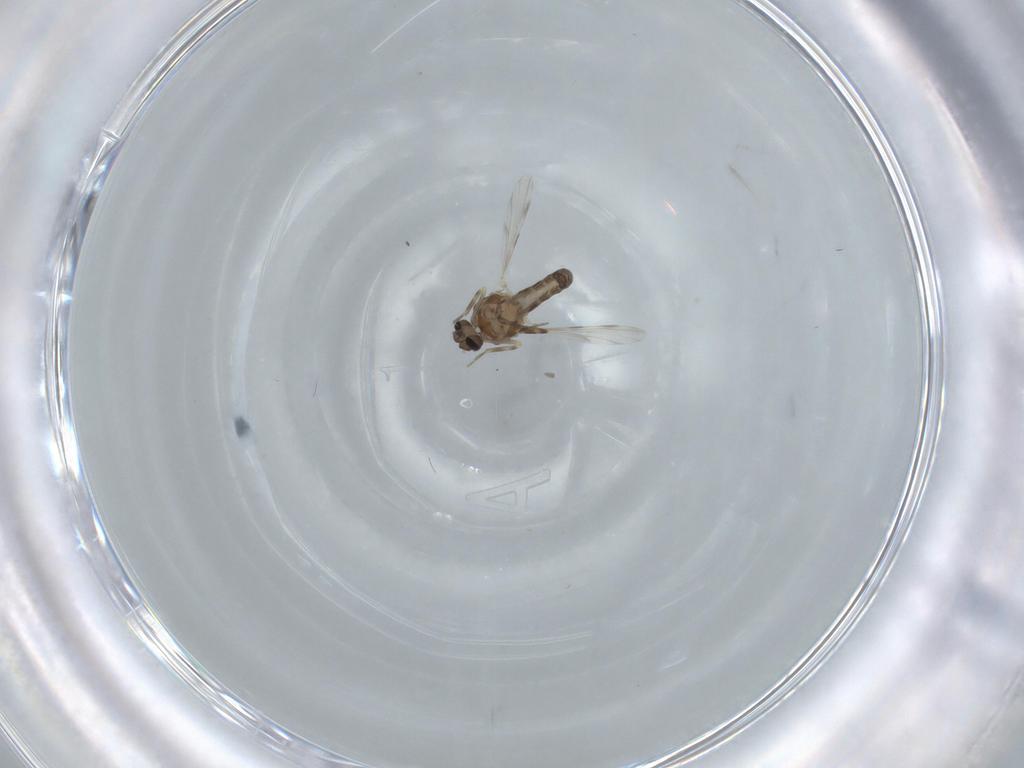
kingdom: Animalia
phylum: Arthropoda
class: Insecta
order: Diptera
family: Ceratopogonidae
